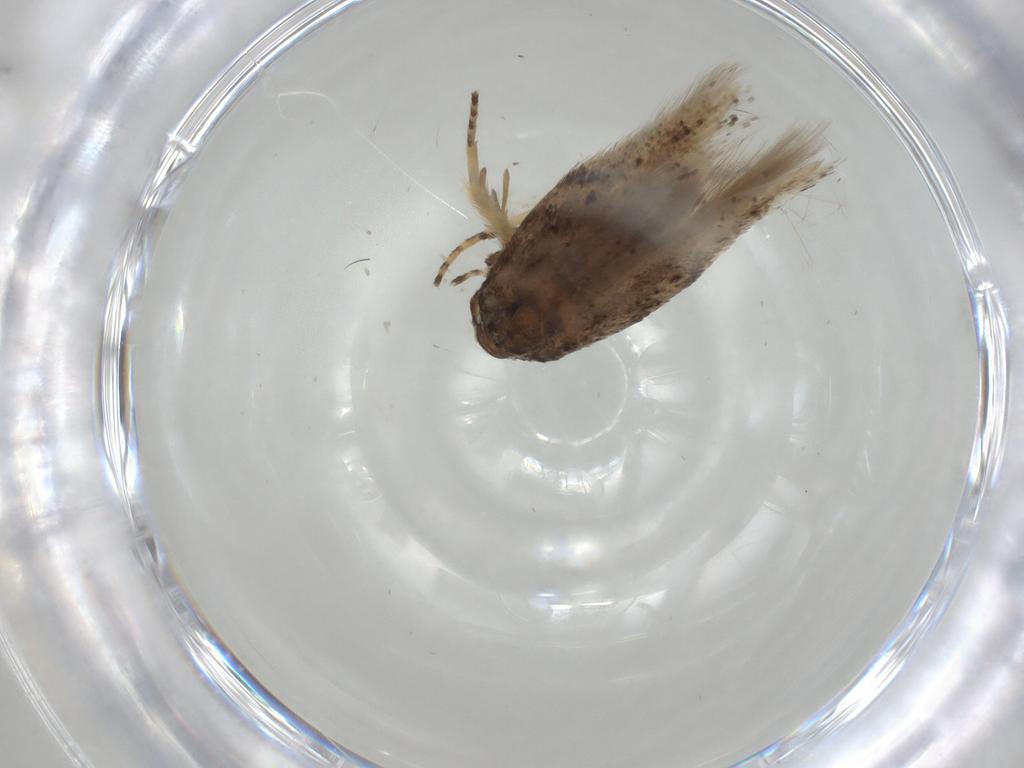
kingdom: Animalia
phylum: Arthropoda
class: Insecta
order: Lepidoptera
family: Gelechiidae
